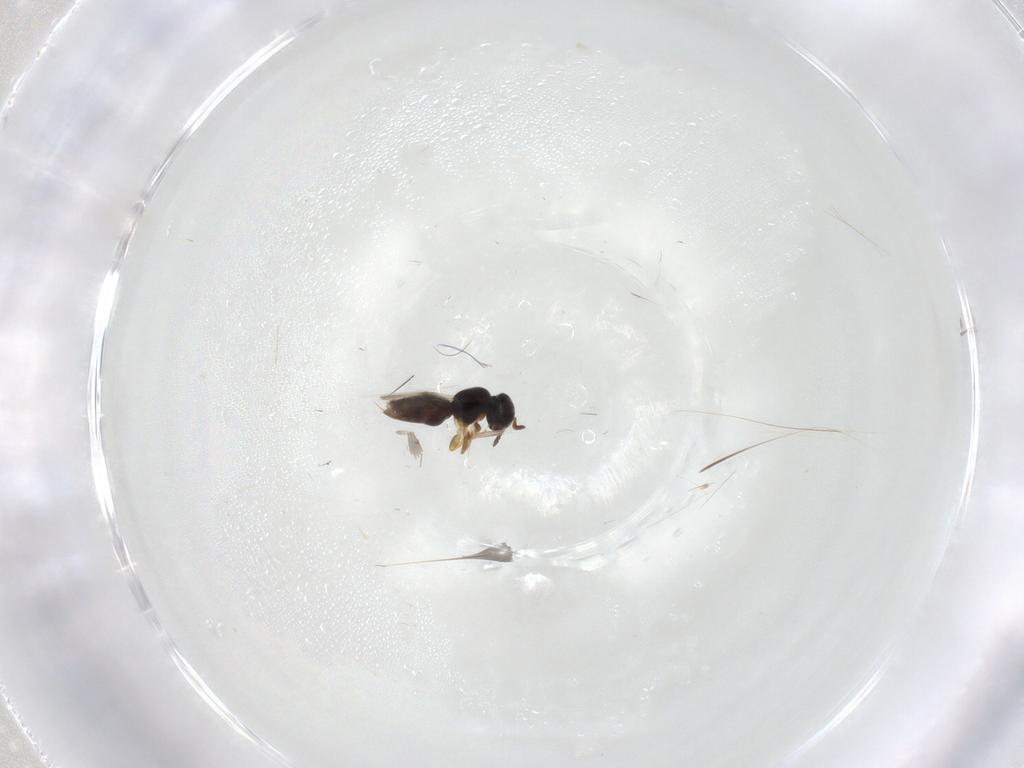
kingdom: Animalia
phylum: Arthropoda
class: Insecta
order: Hymenoptera
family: Halictidae
